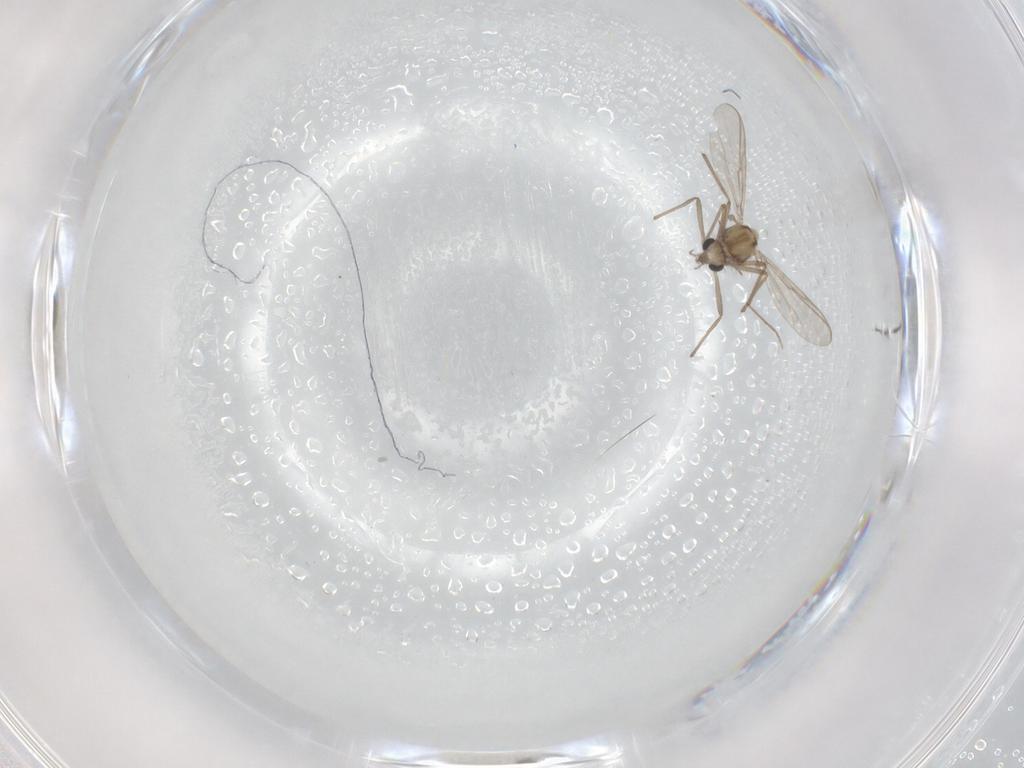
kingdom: Animalia
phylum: Arthropoda
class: Insecta
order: Diptera
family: Chironomidae
